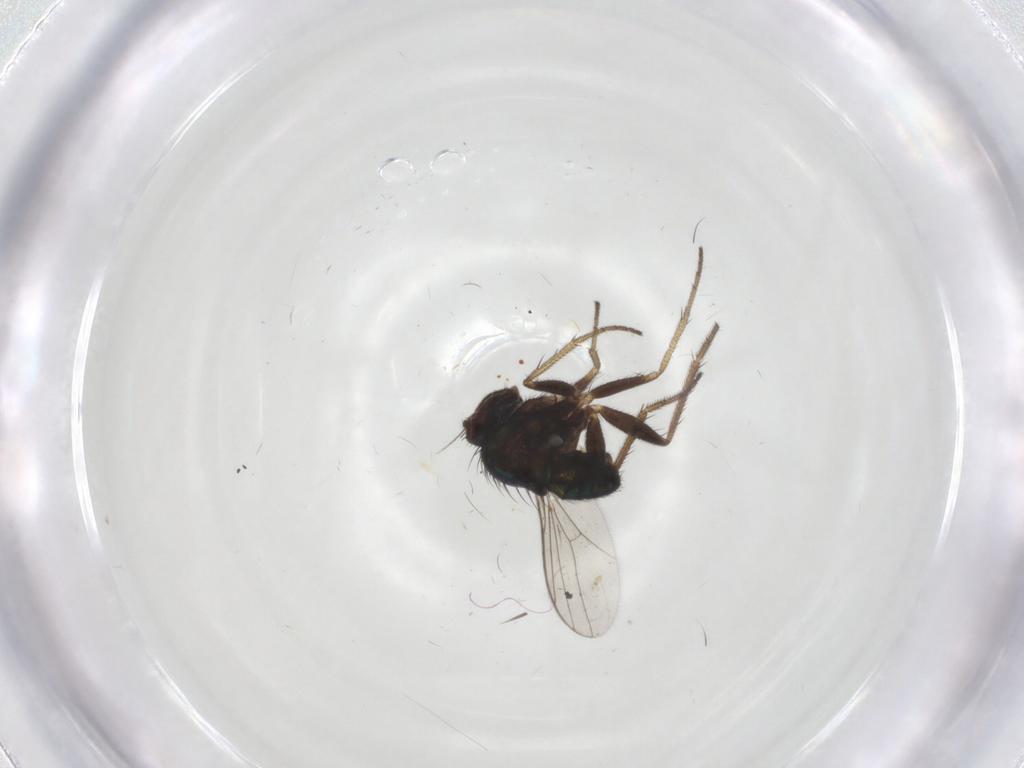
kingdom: Animalia
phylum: Arthropoda
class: Insecta
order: Diptera
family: Dolichopodidae
